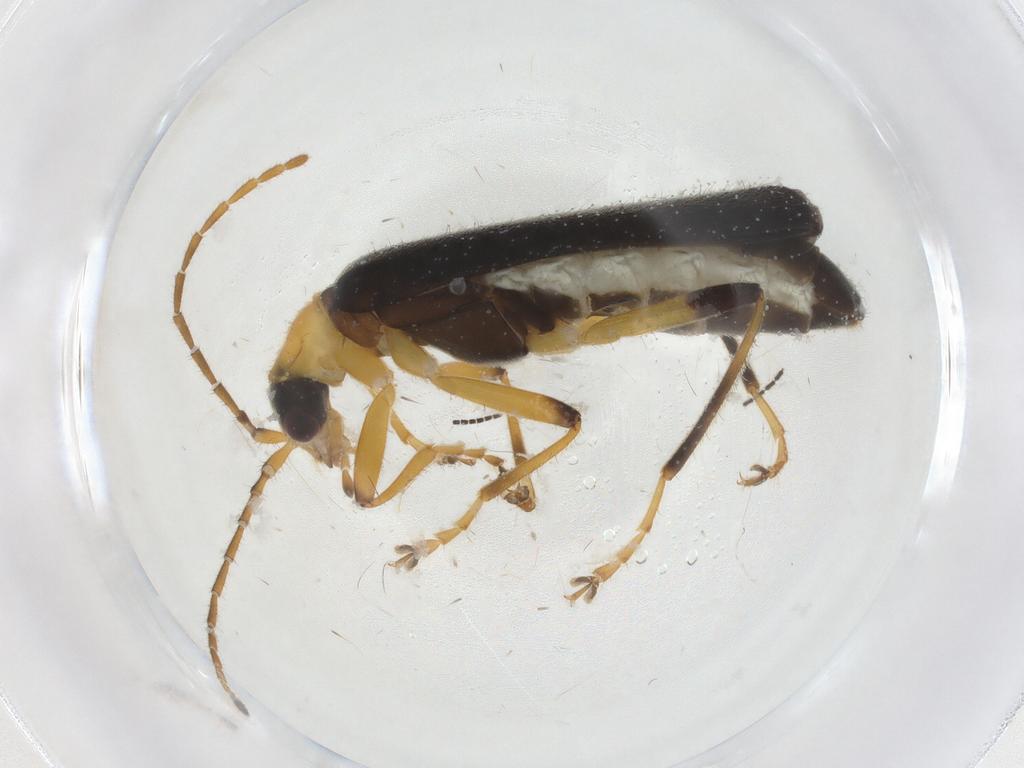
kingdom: Animalia
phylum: Arthropoda
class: Insecta
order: Coleoptera
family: Cantharidae
